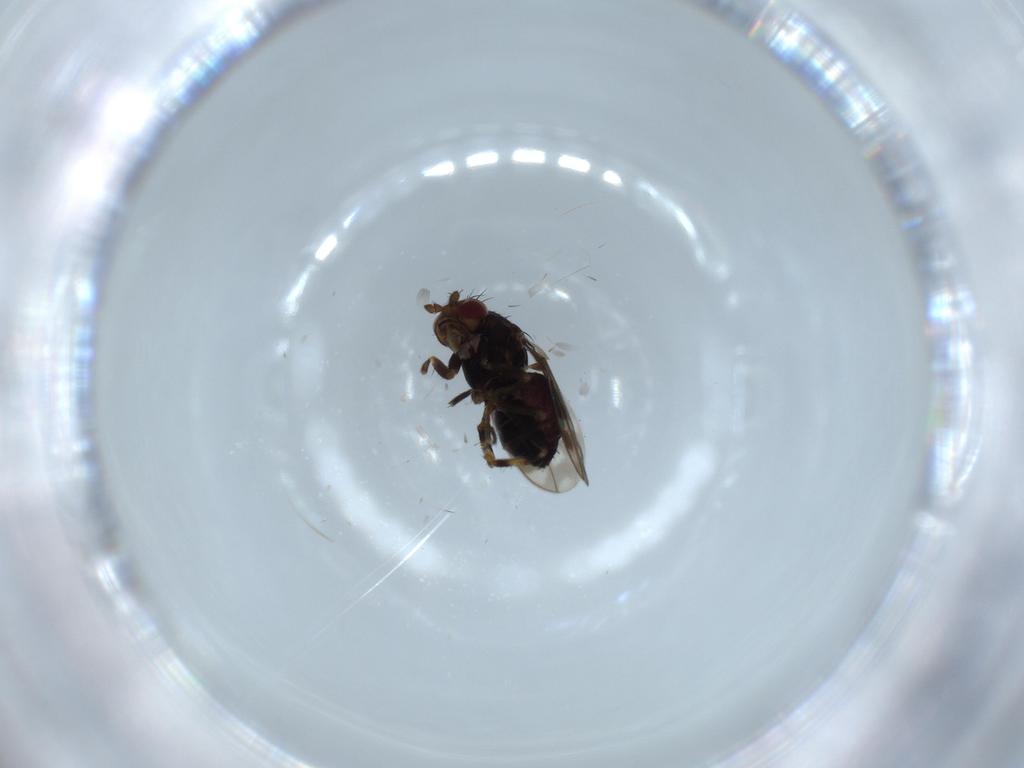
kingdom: Animalia
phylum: Arthropoda
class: Insecta
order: Diptera
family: Sphaeroceridae
